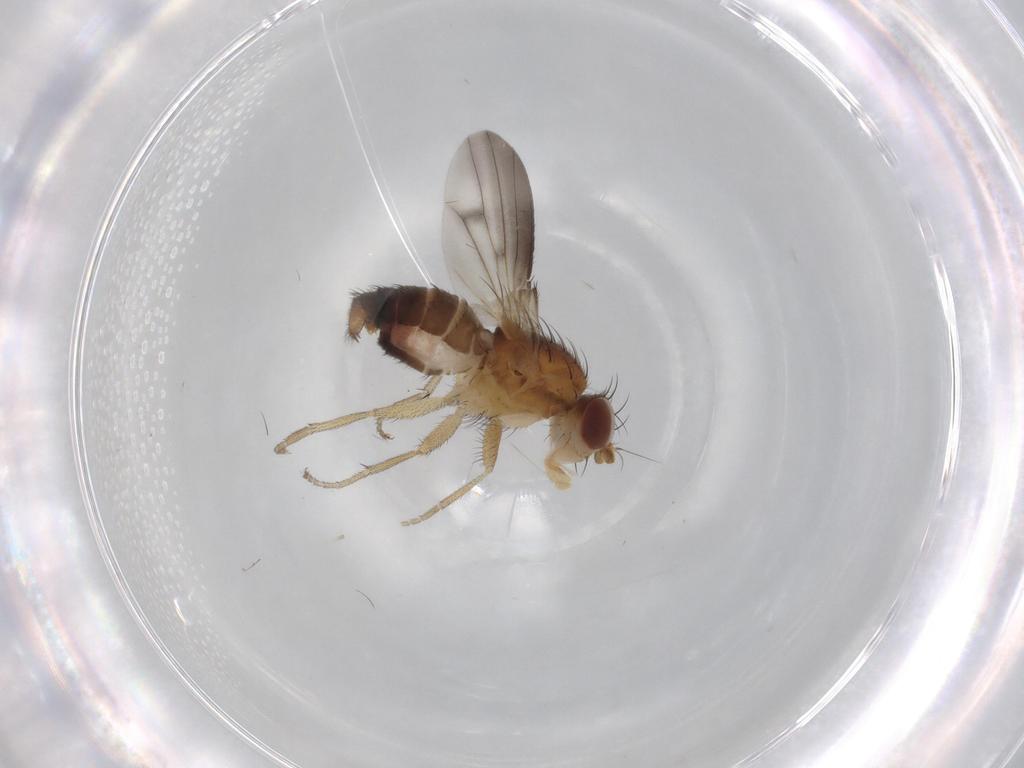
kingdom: Animalia
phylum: Arthropoda
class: Insecta
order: Diptera
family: Heleomyzidae
